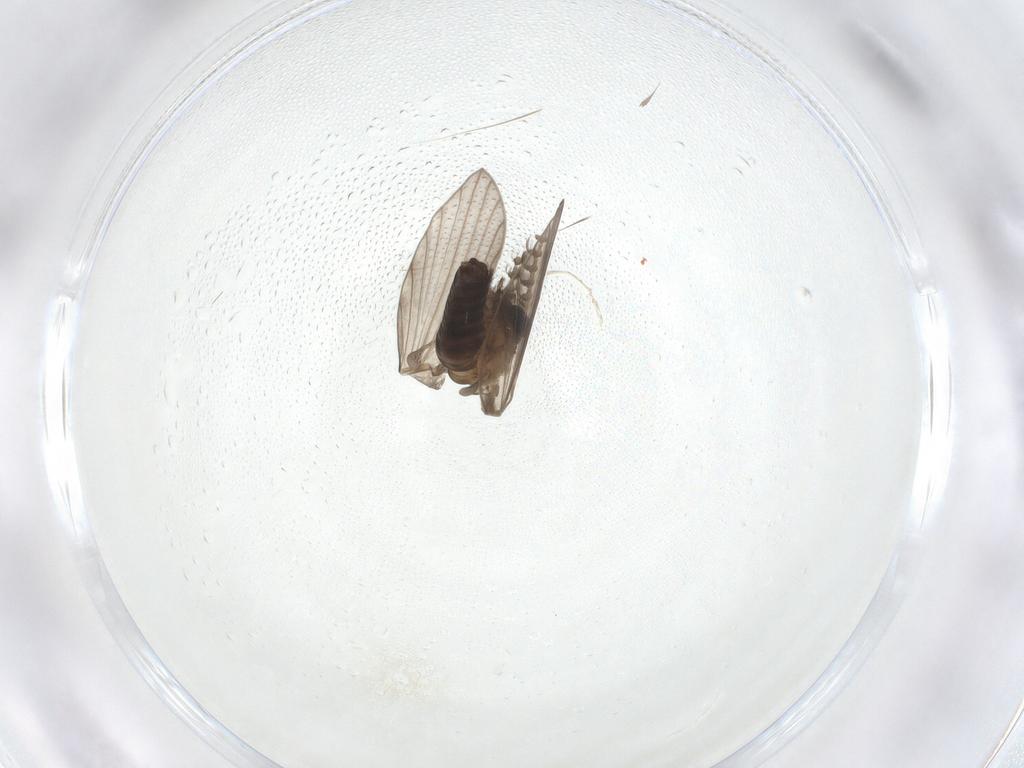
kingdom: Animalia
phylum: Arthropoda
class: Insecta
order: Diptera
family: Psychodidae
